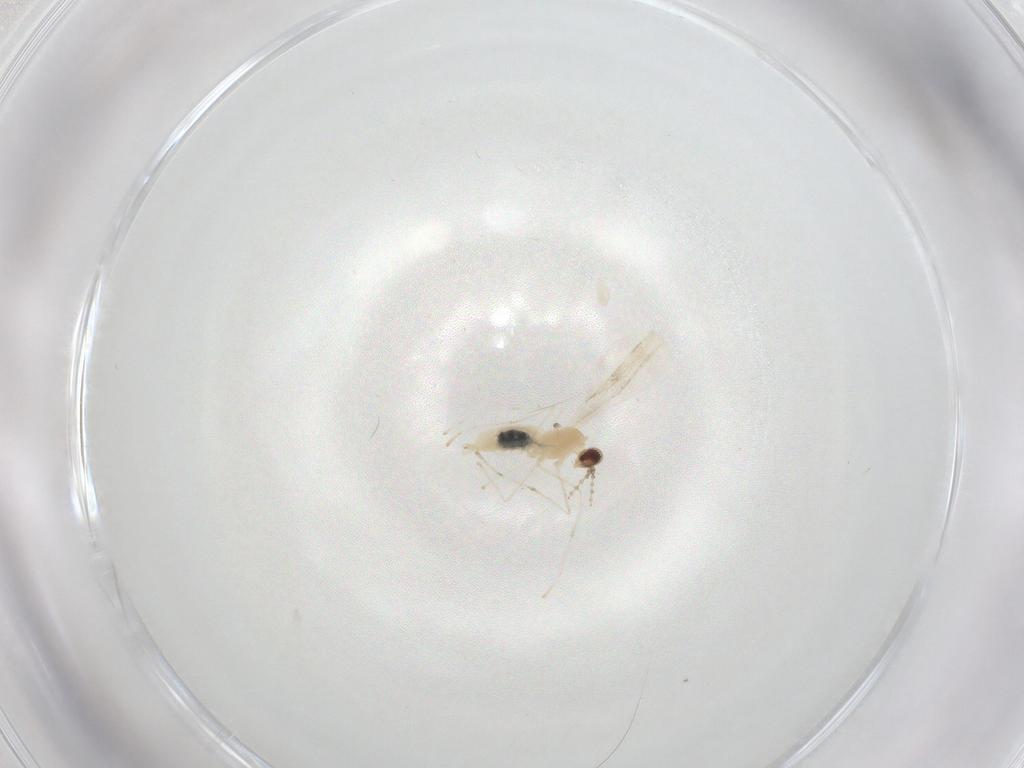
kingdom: Animalia
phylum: Arthropoda
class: Insecta
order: Diptera
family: Cecidomyiidae
